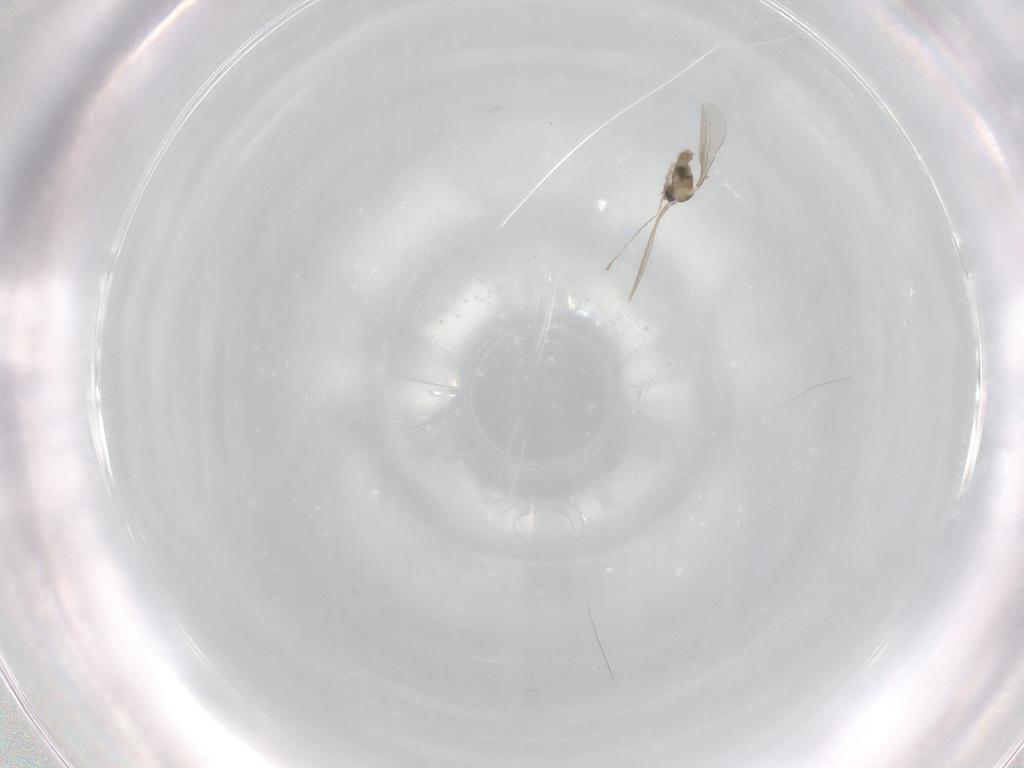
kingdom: Animalia
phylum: Arthropoda
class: Insecta
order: Diptera
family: Cecidomyiidae
